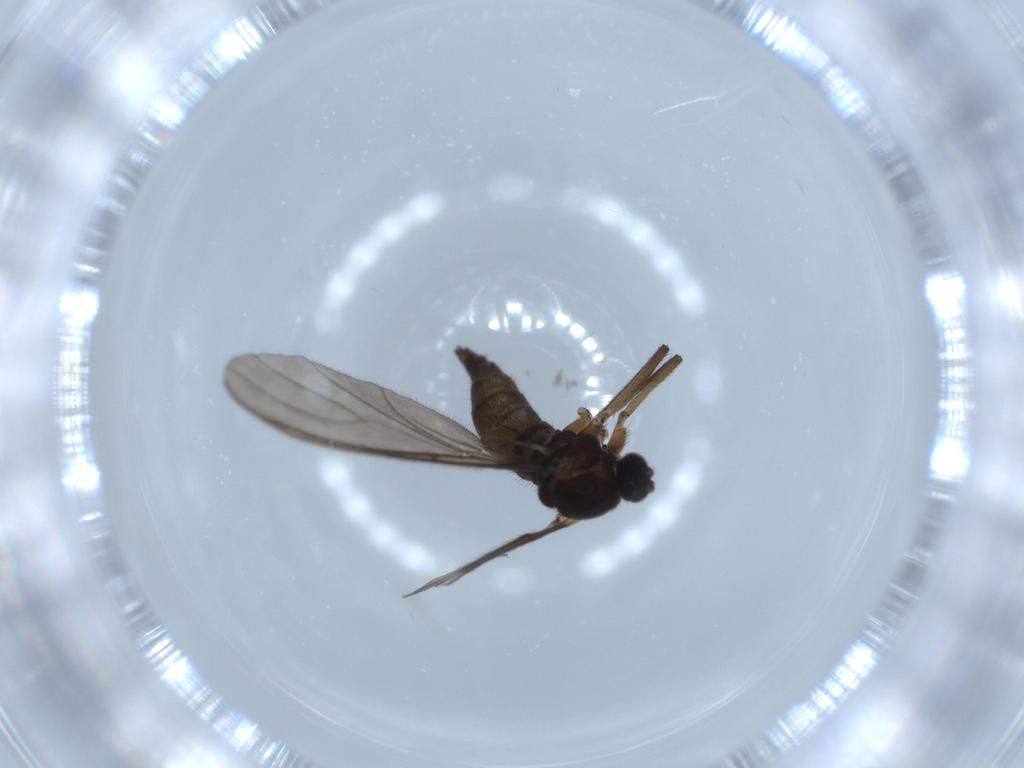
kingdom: Animalia
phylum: Arthropoda
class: Insecta
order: Diptera
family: Sciaridae
